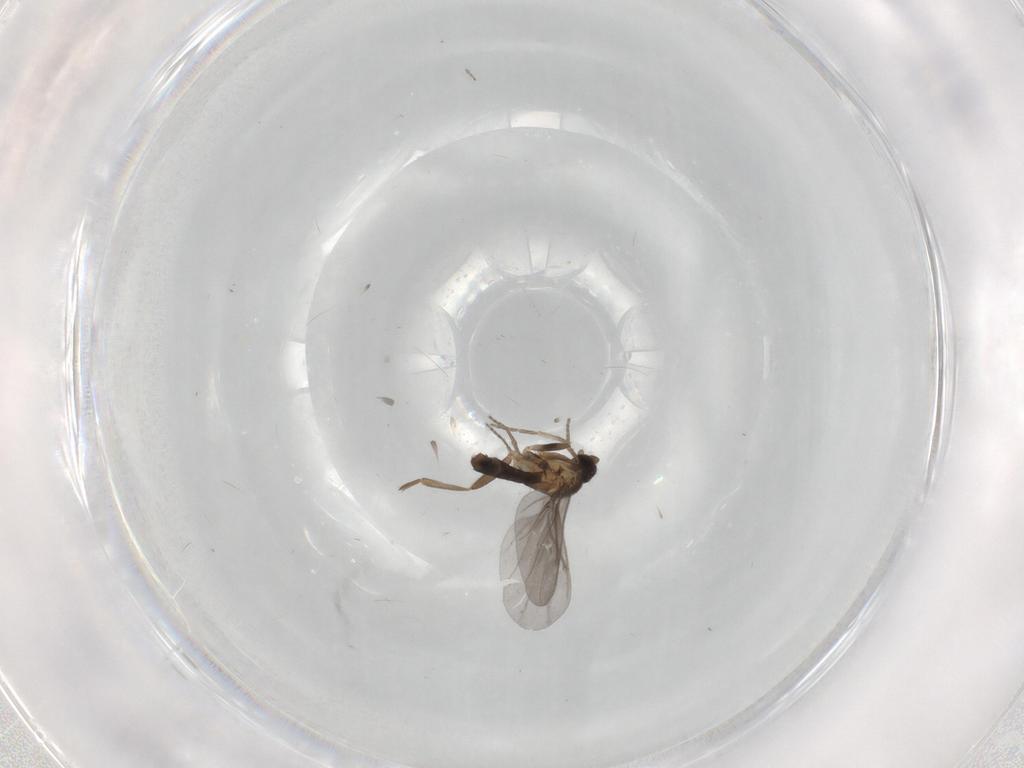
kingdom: Animalia
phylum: Arthropoda
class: Insecta
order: Diptera
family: Phoridae
